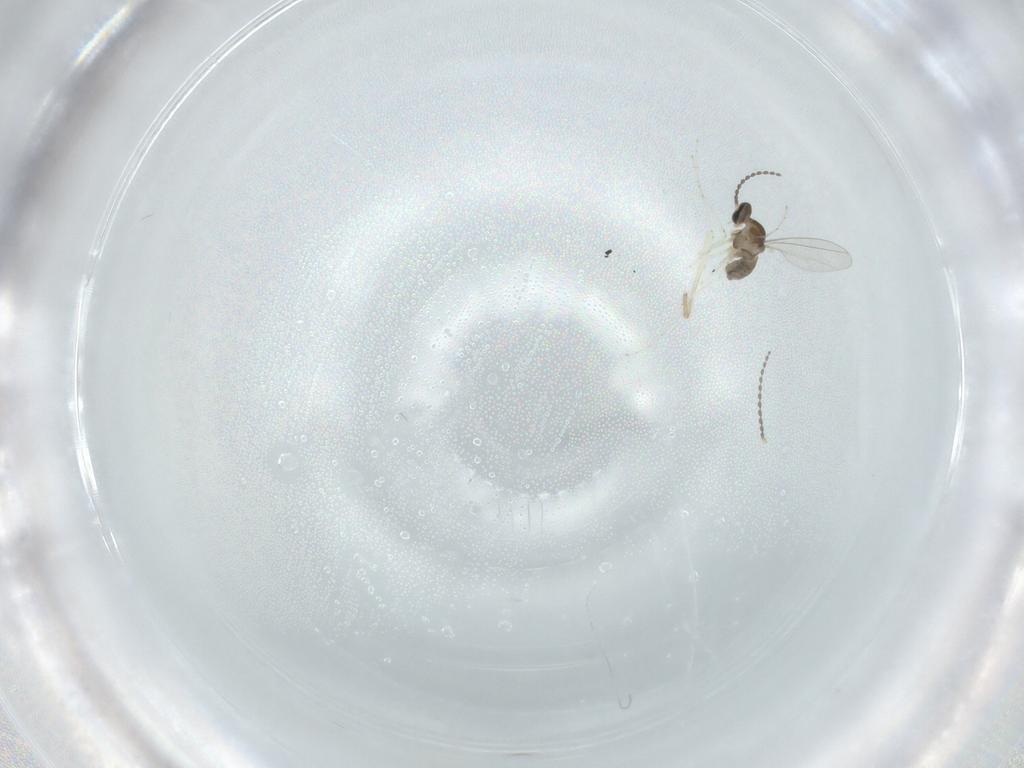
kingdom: Animalia
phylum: Arthropoda
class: Insecta
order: Diptera
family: Cecidomyiidae
